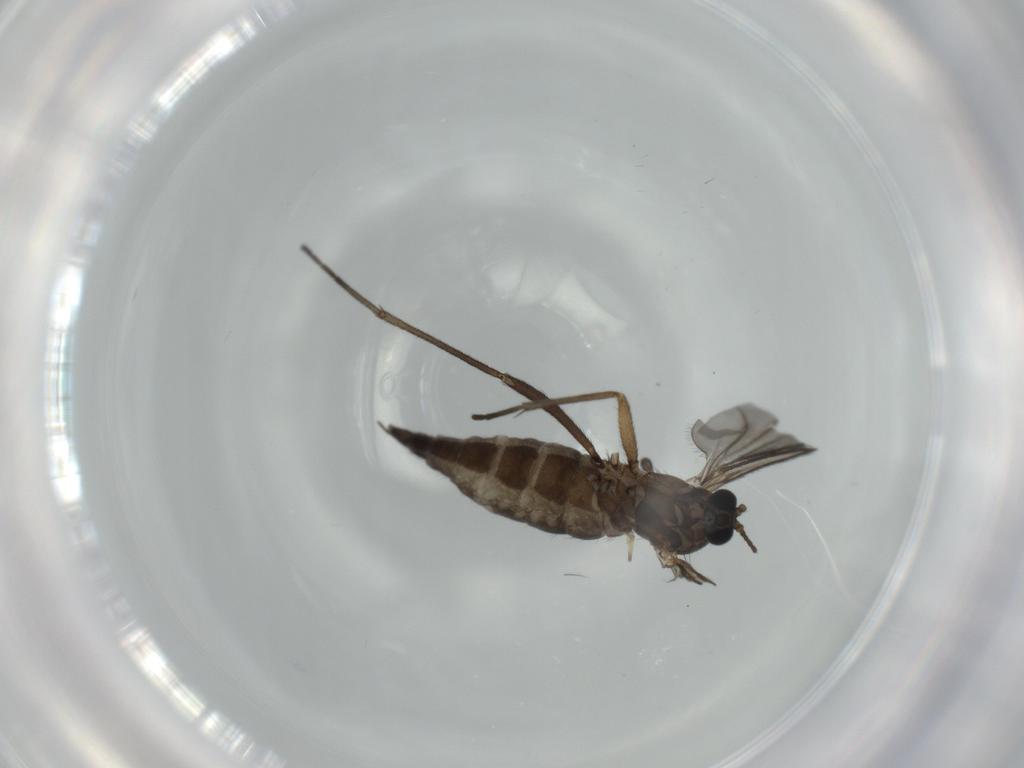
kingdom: Animalia
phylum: Arthropoda
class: Insecta
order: Diptera
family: Sciaridae
